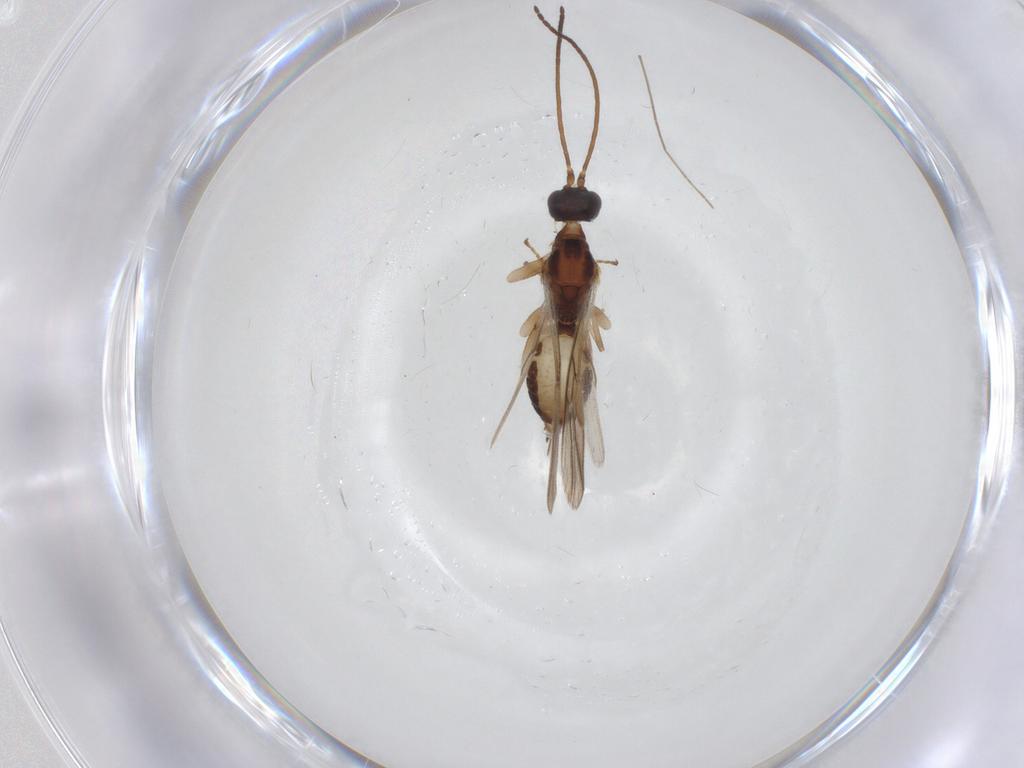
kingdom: Animalia
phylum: Arthropoda
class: Insecta
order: Hymenoptera
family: Braconidae
